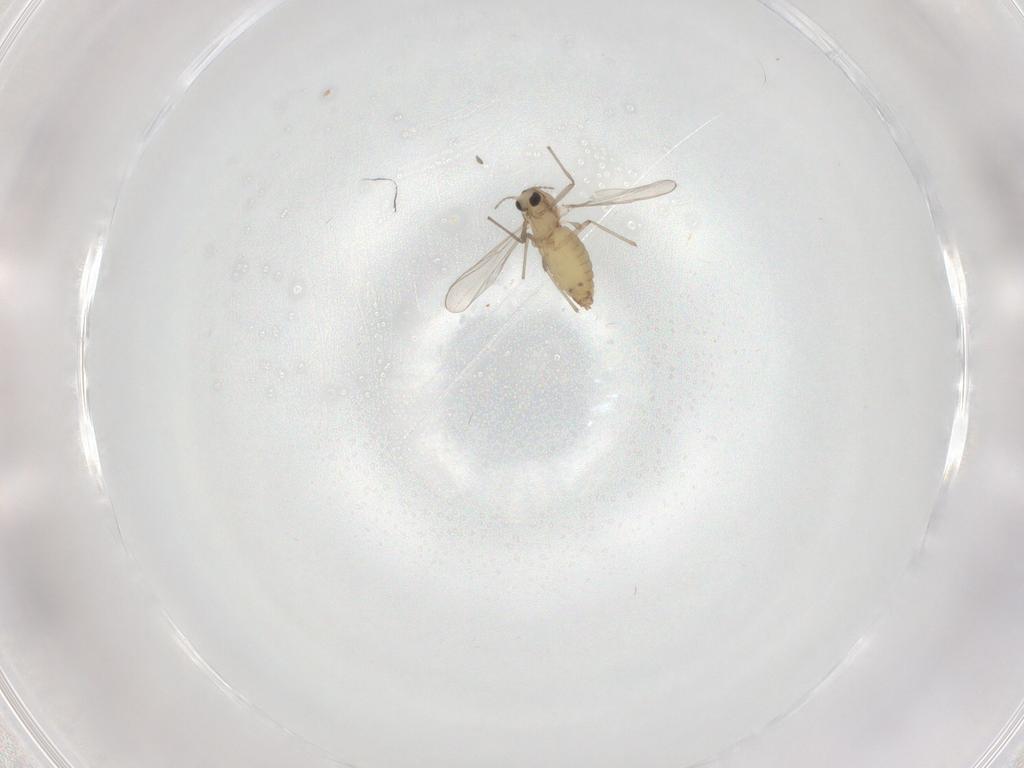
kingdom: Animalia
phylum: Arthropoda
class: Insecta
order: Diptera
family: Chironomidae
